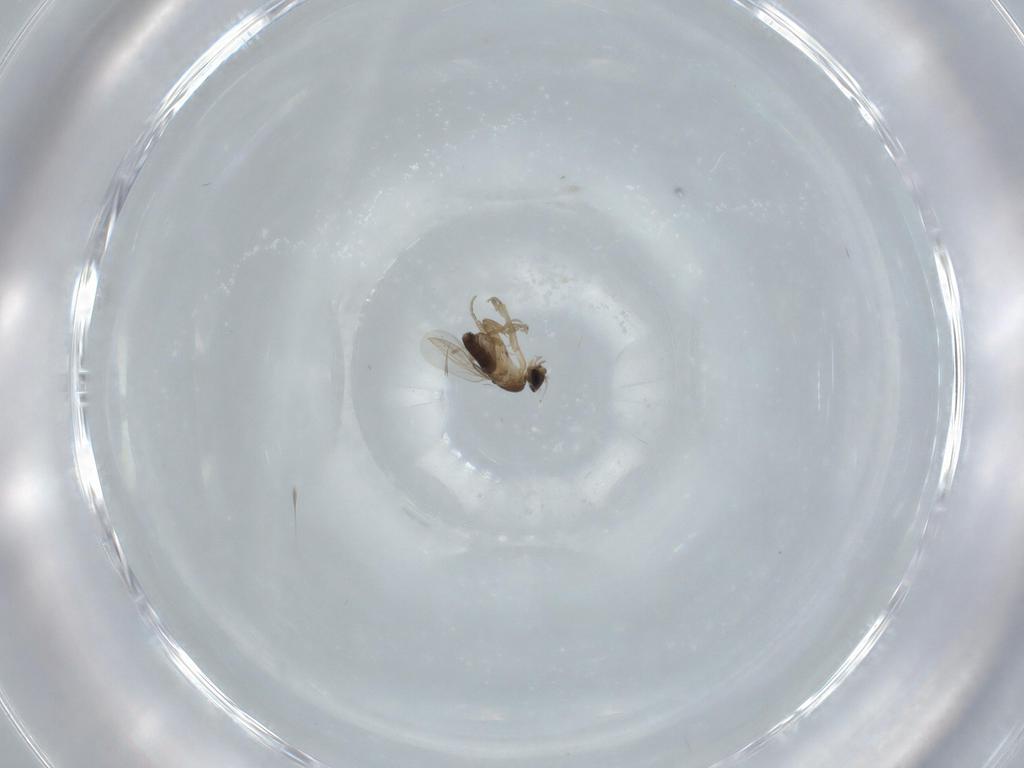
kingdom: Animalia
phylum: Arthropoda
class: Insecta
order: Diptera
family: Phoridae
